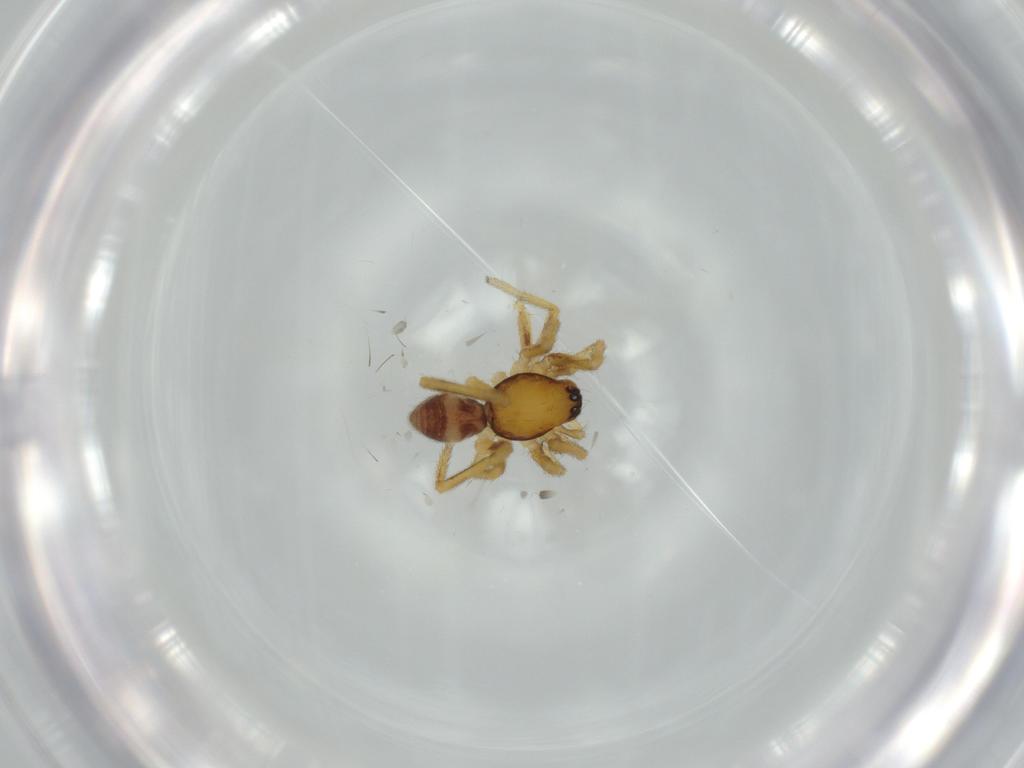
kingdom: Animalia
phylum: Arthropoda
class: Arachnida
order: Araneae
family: Corinnidae
